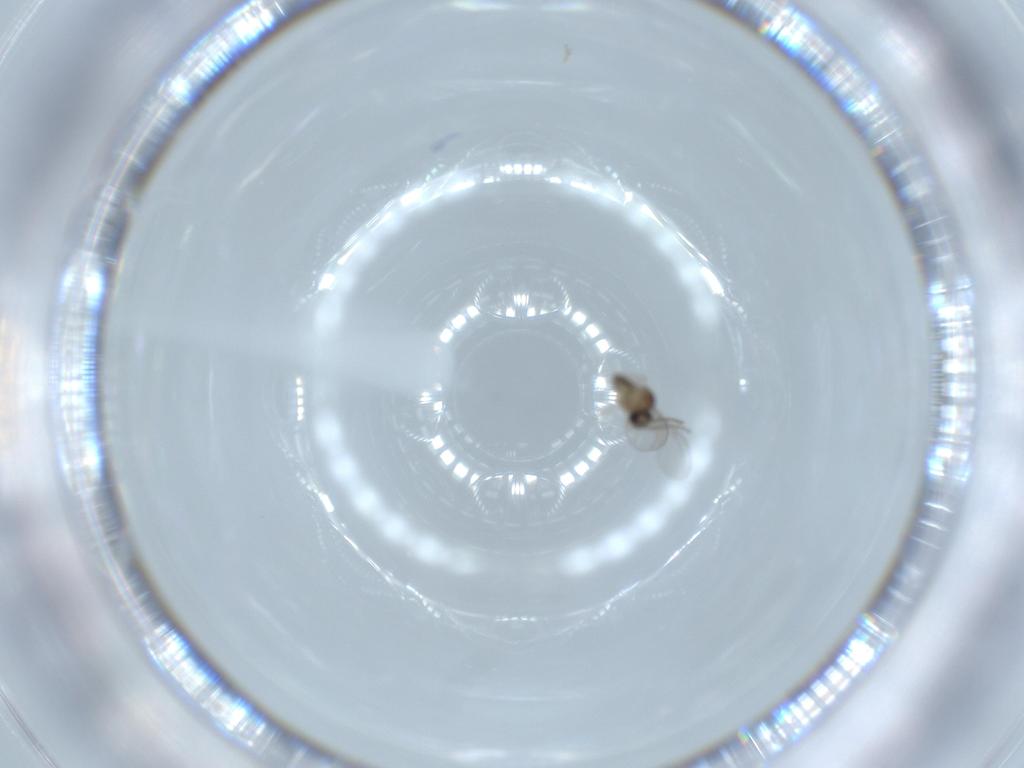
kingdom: Animalia
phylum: Arthropoda
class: Insecta
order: Diptera
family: Cecidomyiidae
